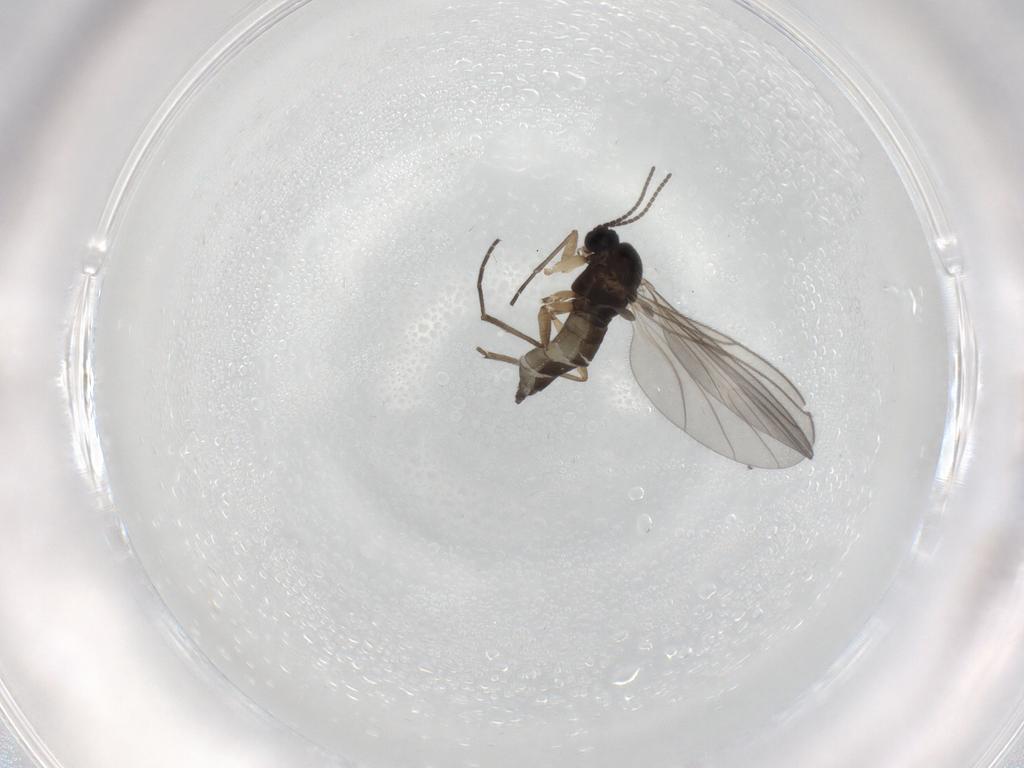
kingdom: Animalia
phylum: Arthropoda
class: Insecta
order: Diptera
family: Sciaridae
